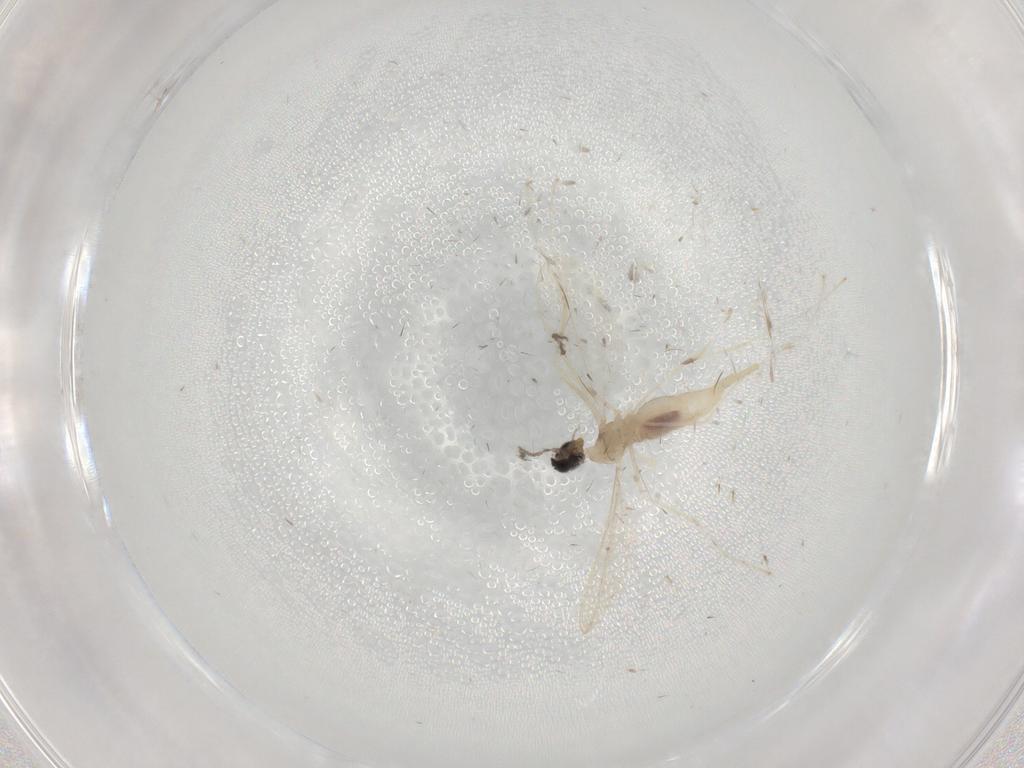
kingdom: Animalia
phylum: Arthropoda
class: Insecta
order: Diptera
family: Cecidomyiidae
